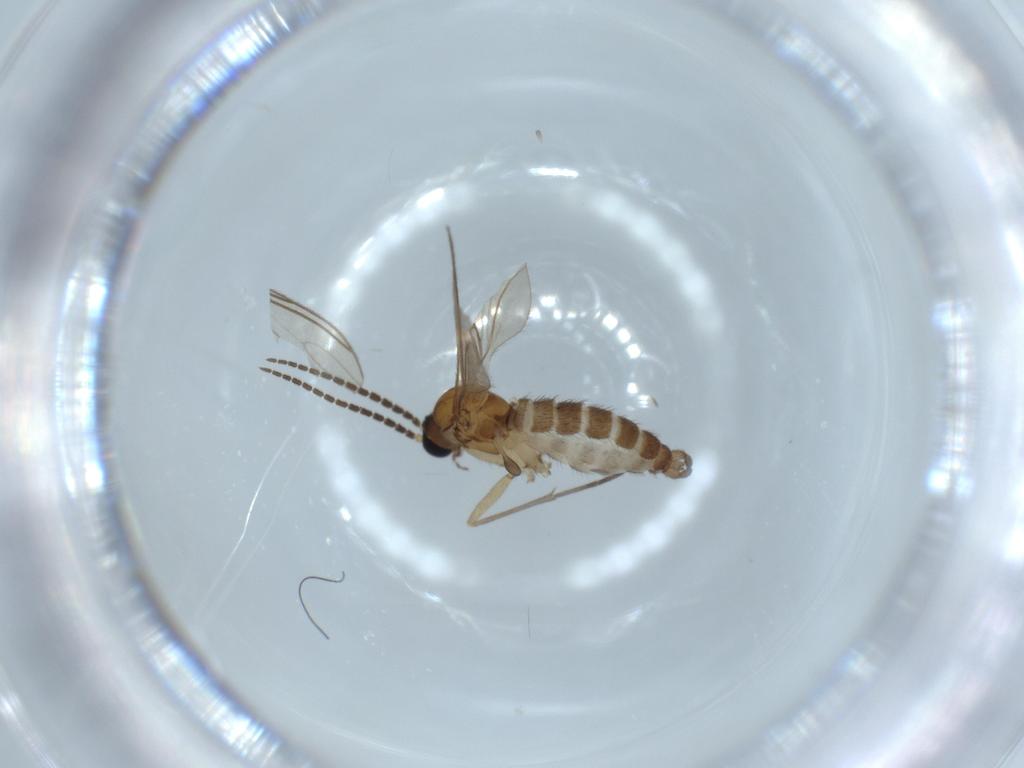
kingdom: Animalia
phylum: Arthropoda
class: Insecta
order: Diptera
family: Sciaridae
